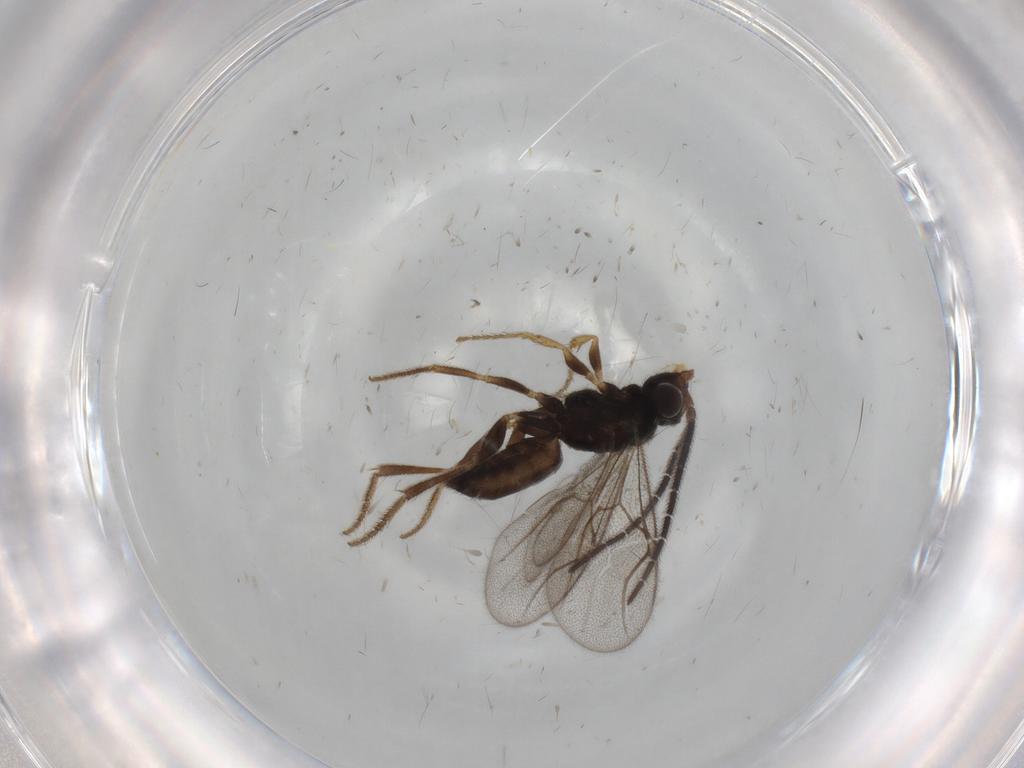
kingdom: Animalia
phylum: Arthropoda
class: Insecta
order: Hymenoptera
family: Dryinidae
